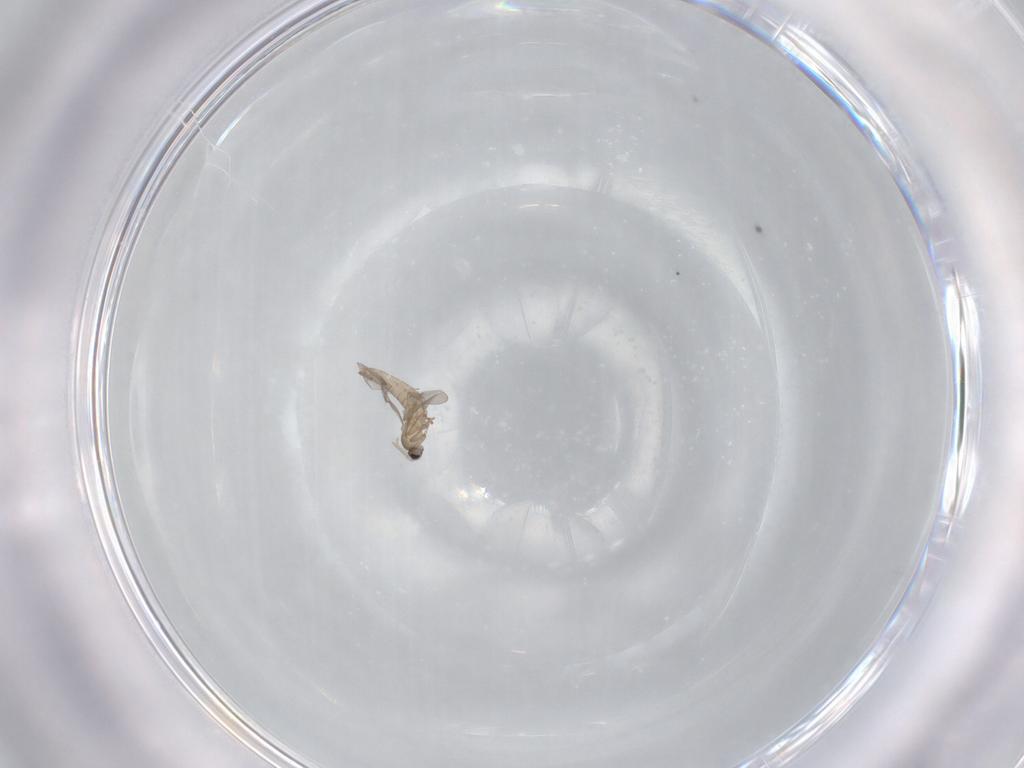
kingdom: Animalia
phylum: Arthropoda
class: Insecta
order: Diptera
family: Cecidomyiidae
